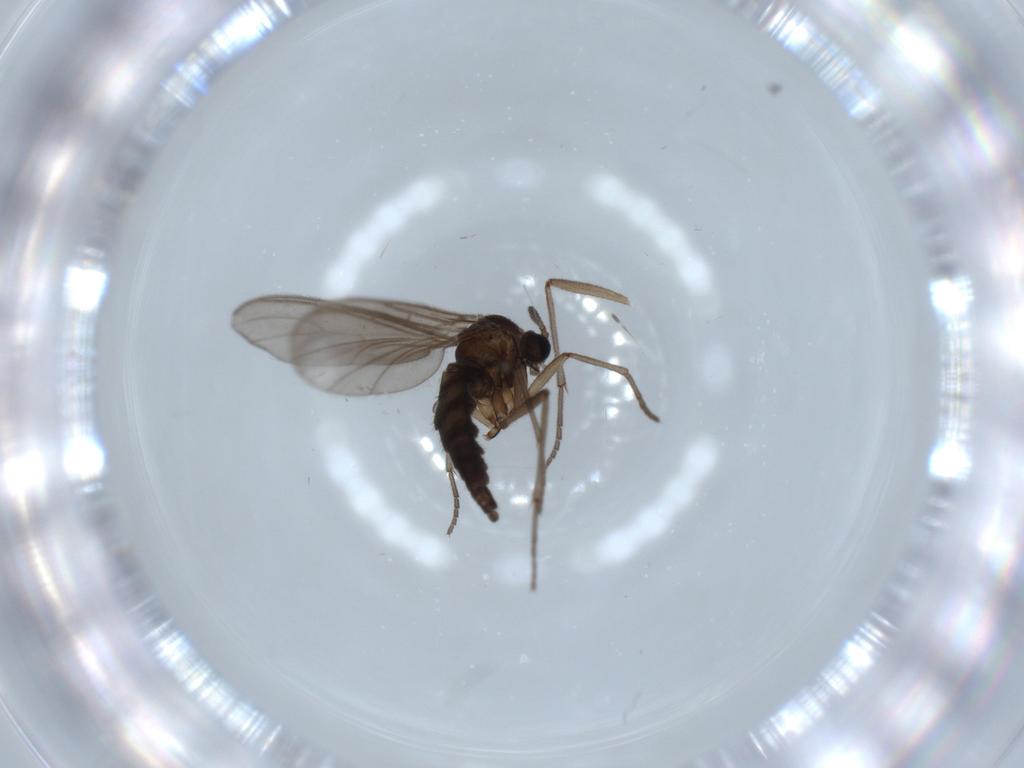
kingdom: Animalia
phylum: Arthropoda
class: Insecta
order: Diptera
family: Sciaridae
